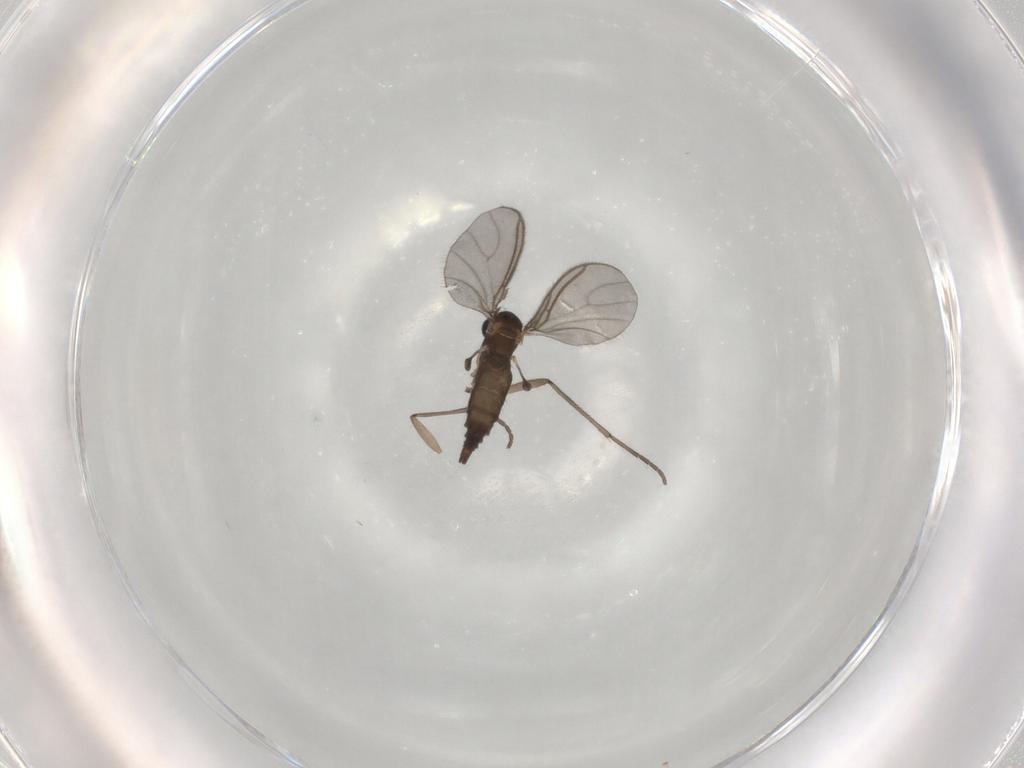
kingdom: Animalia
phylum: Arthropoda
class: Insecta
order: Diptera
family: Sciaridae
